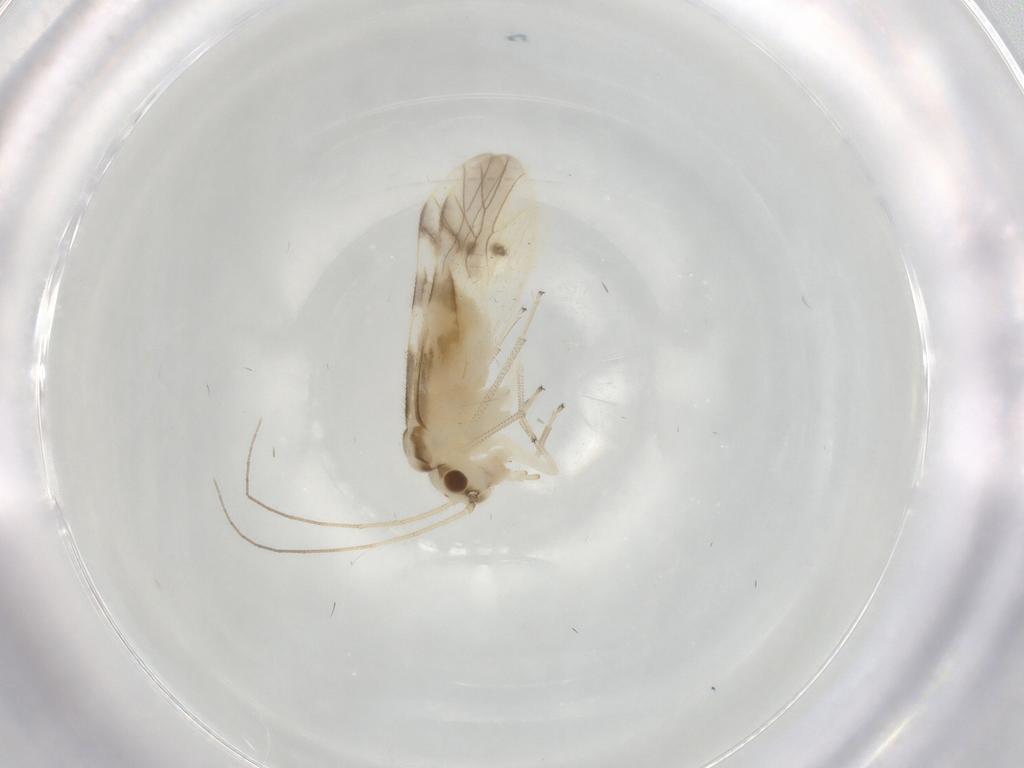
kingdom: Animalia
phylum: Arthropoda
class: Insecta
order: Psocodea
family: Caeciliusidae
